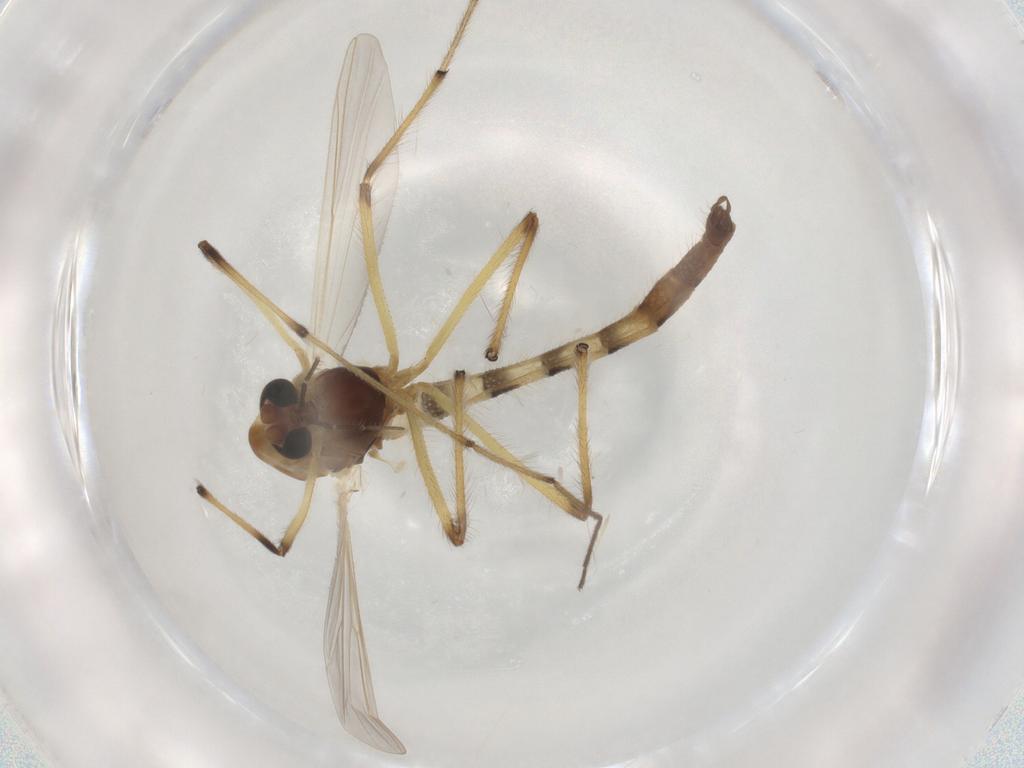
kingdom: Animalia
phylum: Arthropoda
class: Insecta
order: Diptera
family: Chironomidae
